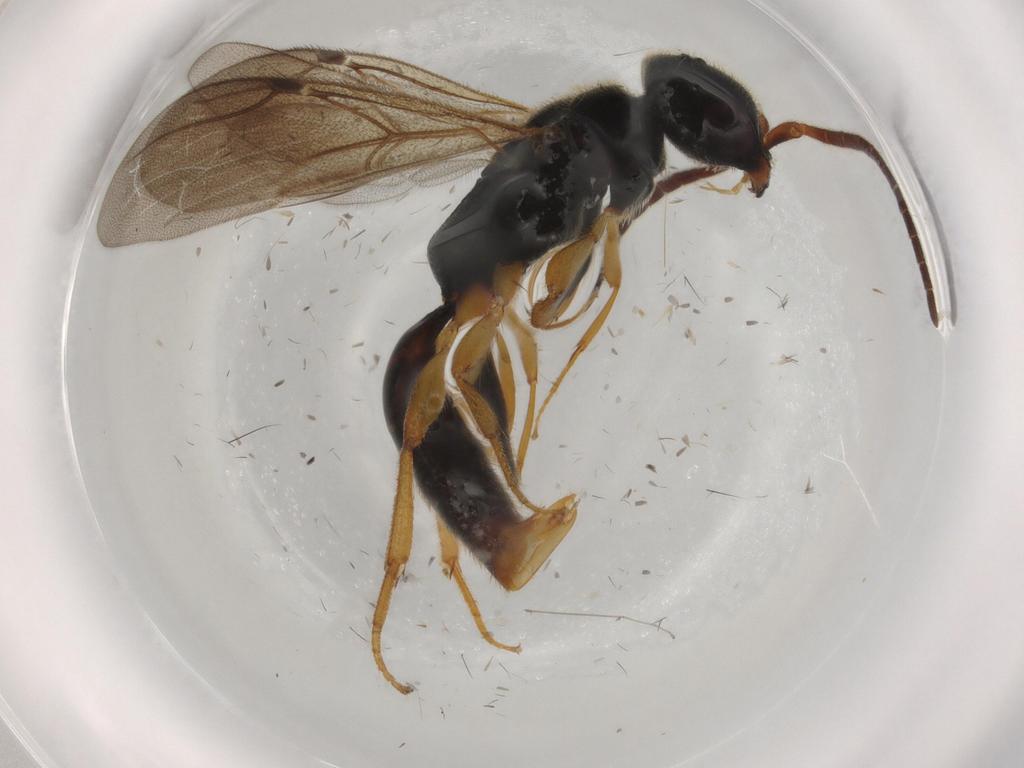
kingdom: Animalia
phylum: Arthropoda
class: Insecta
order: Hymenoptera
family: Bethylidae
